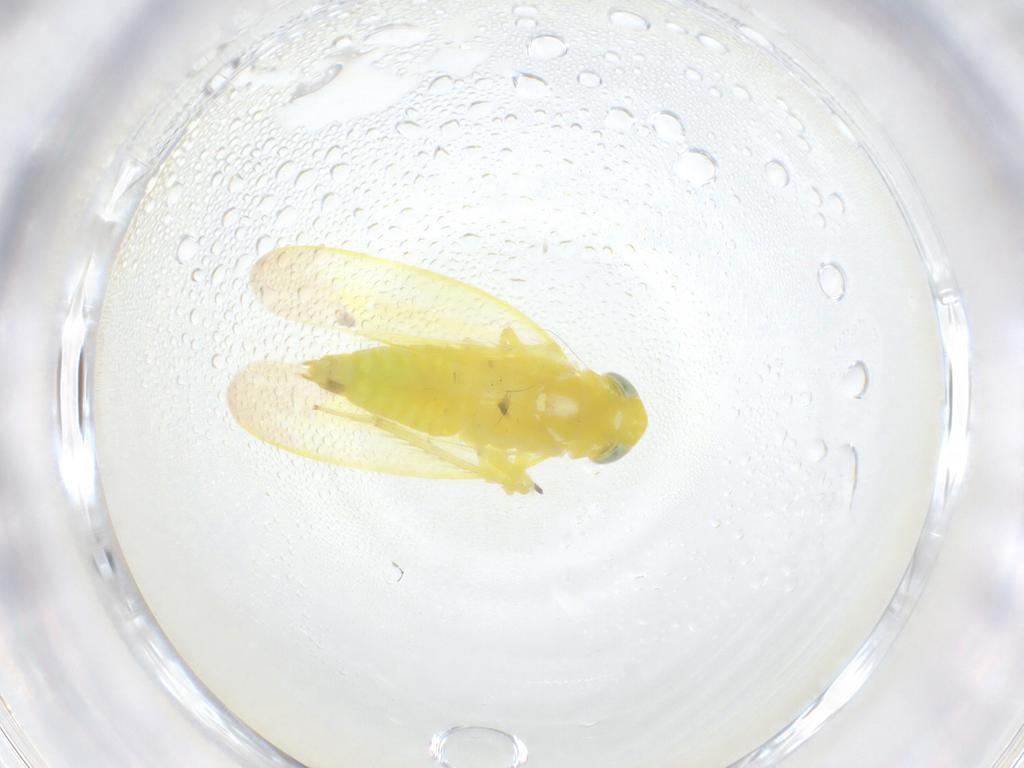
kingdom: Animalia
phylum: Arthropoda
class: Insecta
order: Hemiptera
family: Cicadellidae
